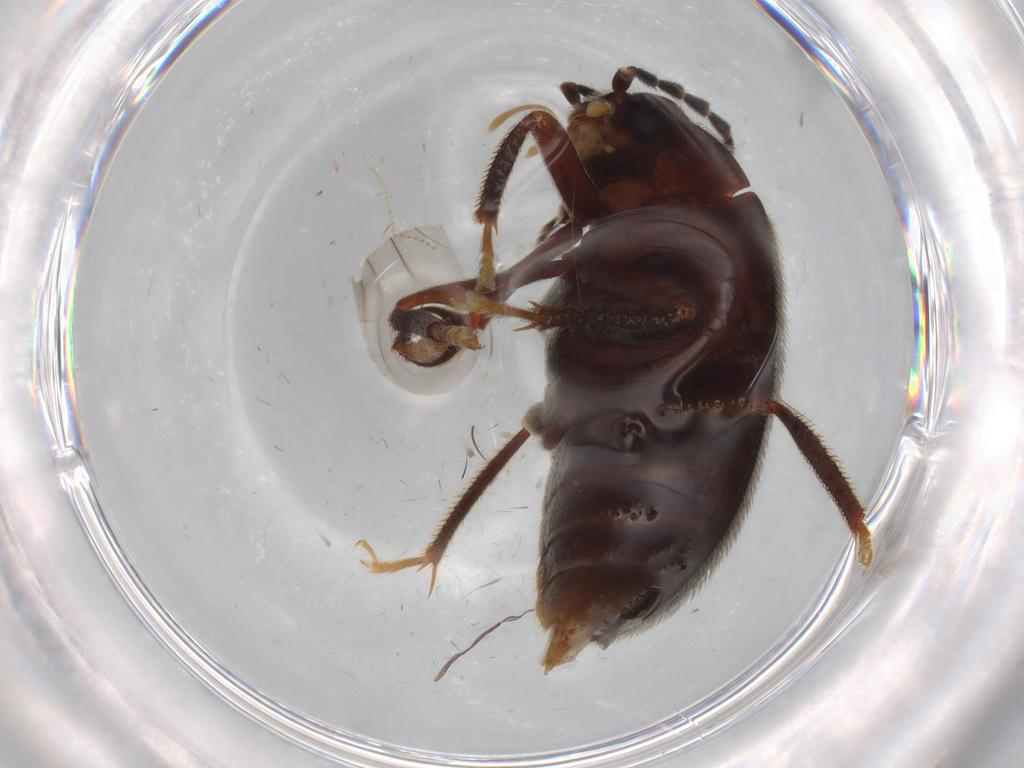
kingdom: Animalia
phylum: Arthropoda
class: Insecta
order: Coleoptera
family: Ptilodactylidae
